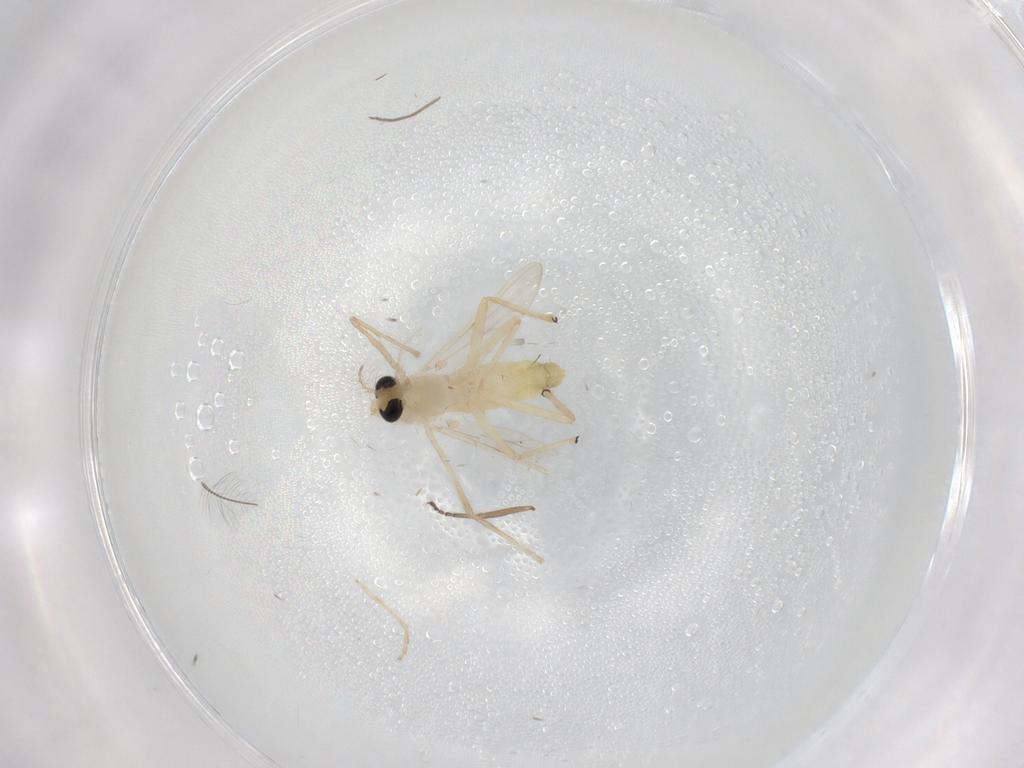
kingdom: Animalia
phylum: Arthropoda
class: Insecta
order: Diptera
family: Chironomidae
